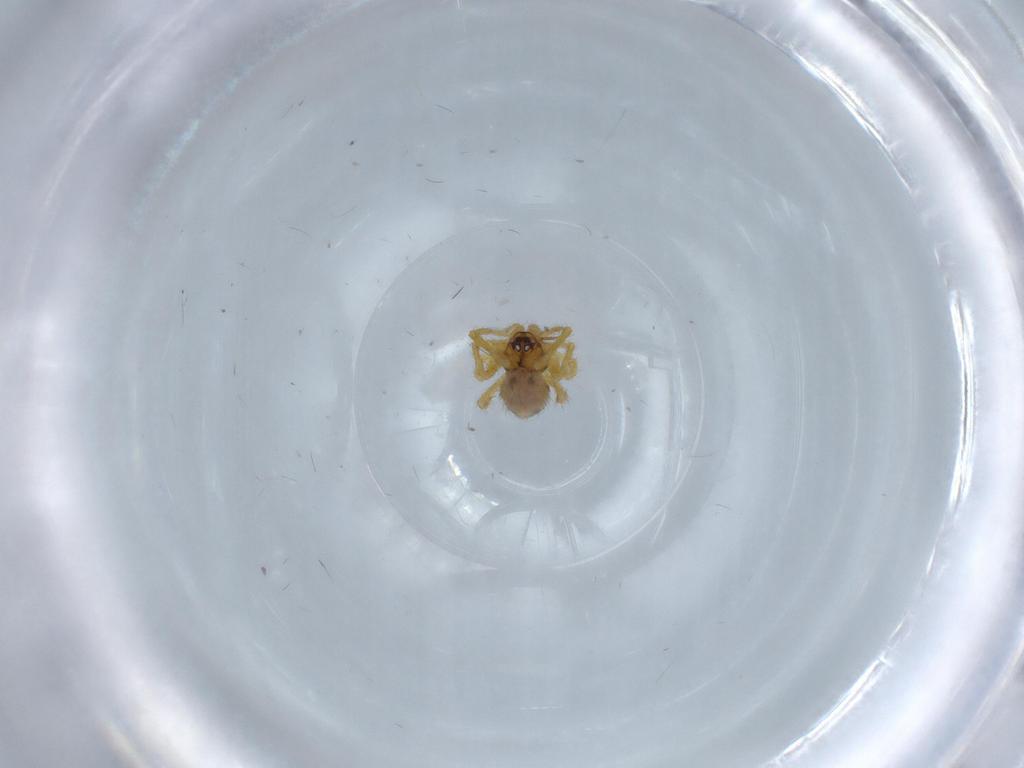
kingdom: Animalia
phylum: Arthropoda
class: Arachnida
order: Araneae
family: Theridiidae
